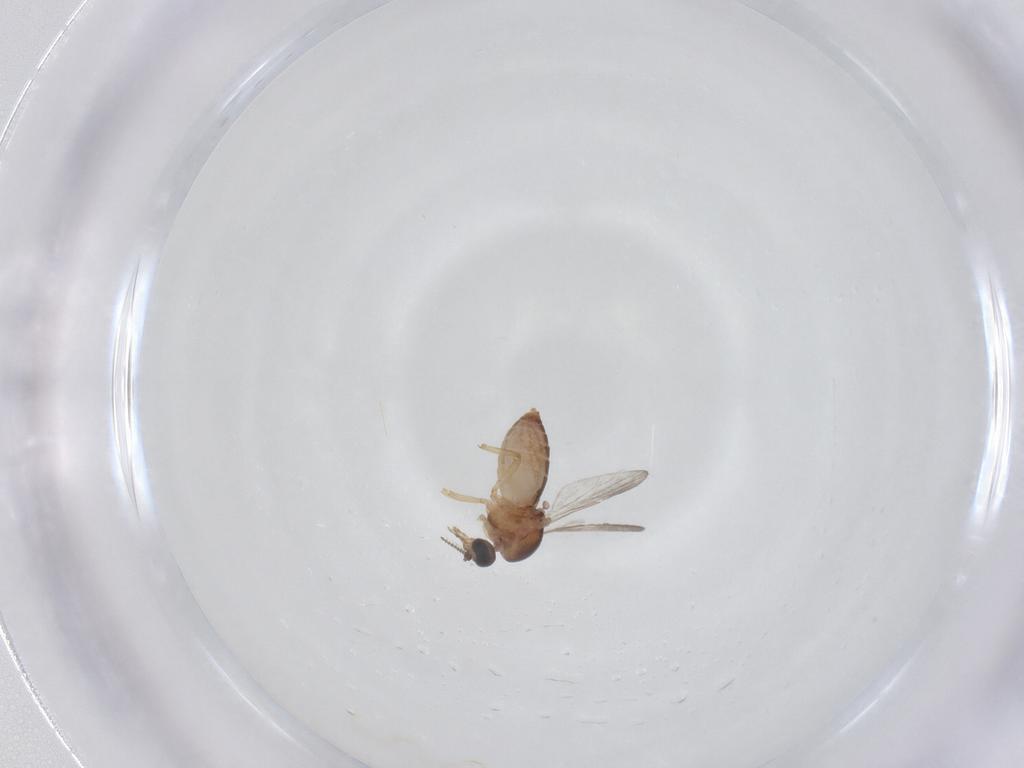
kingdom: Animalia
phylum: Arthropoda
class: Insecta
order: Diptera
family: Ceratopogonidae
